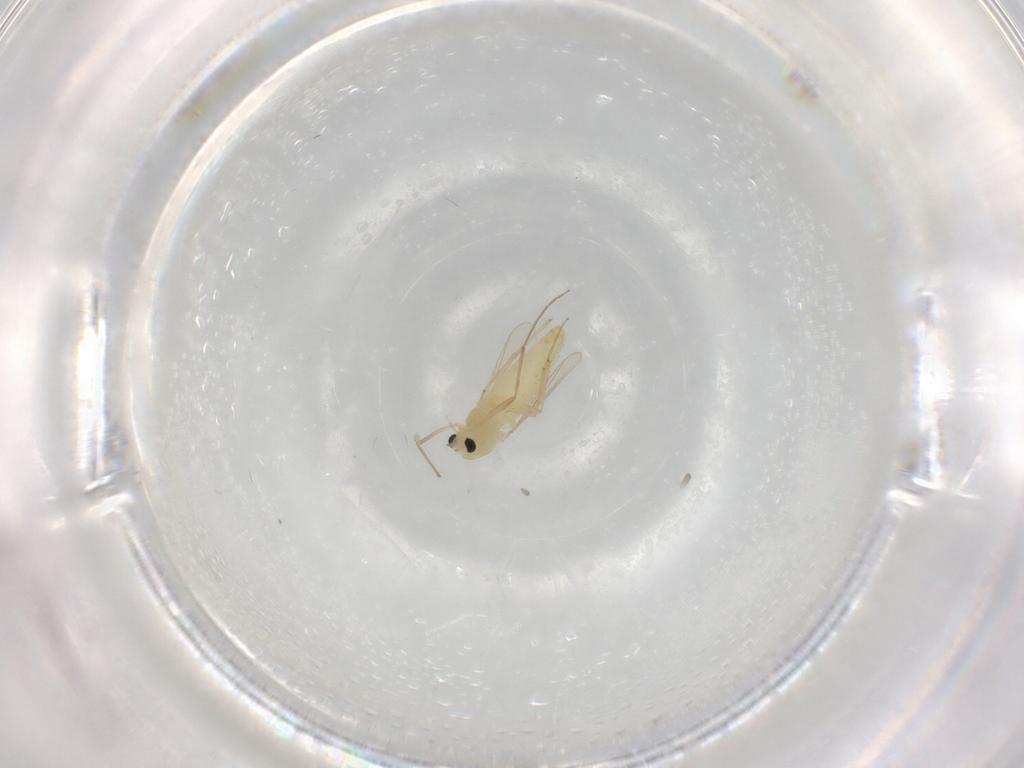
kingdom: Animalia
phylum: Arthropoda
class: Insecta
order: Diptera
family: Chironomidae
